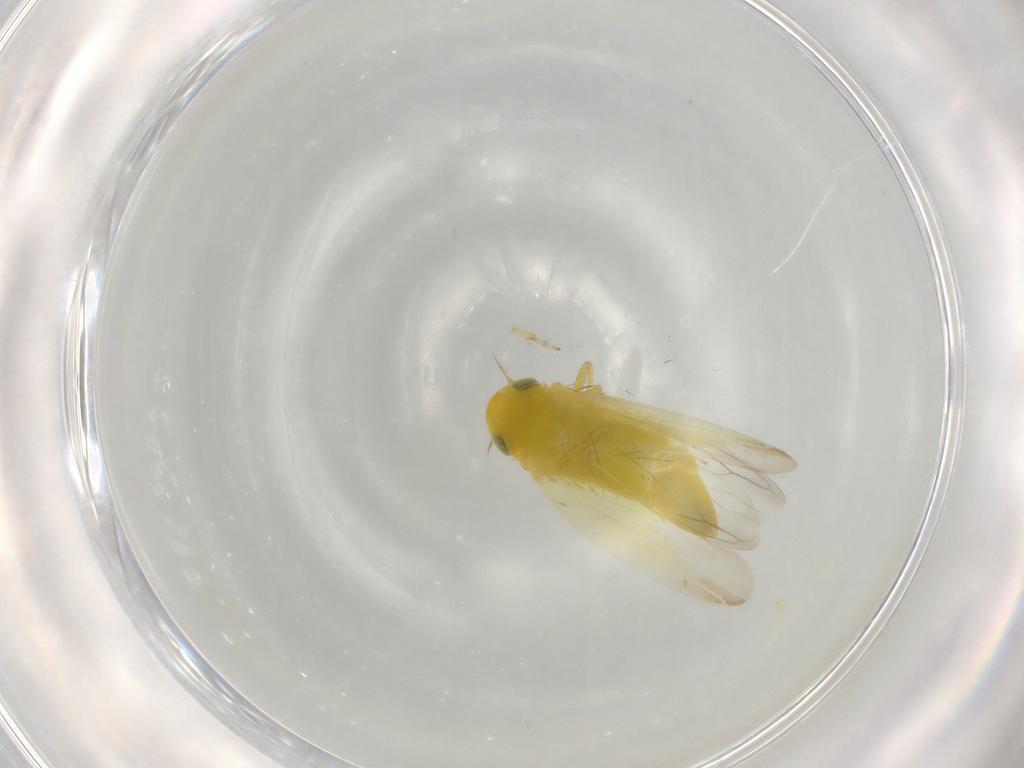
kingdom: Animalia
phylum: Arthropoda
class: Insecta
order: Hemiptera
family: Cicadellidae
